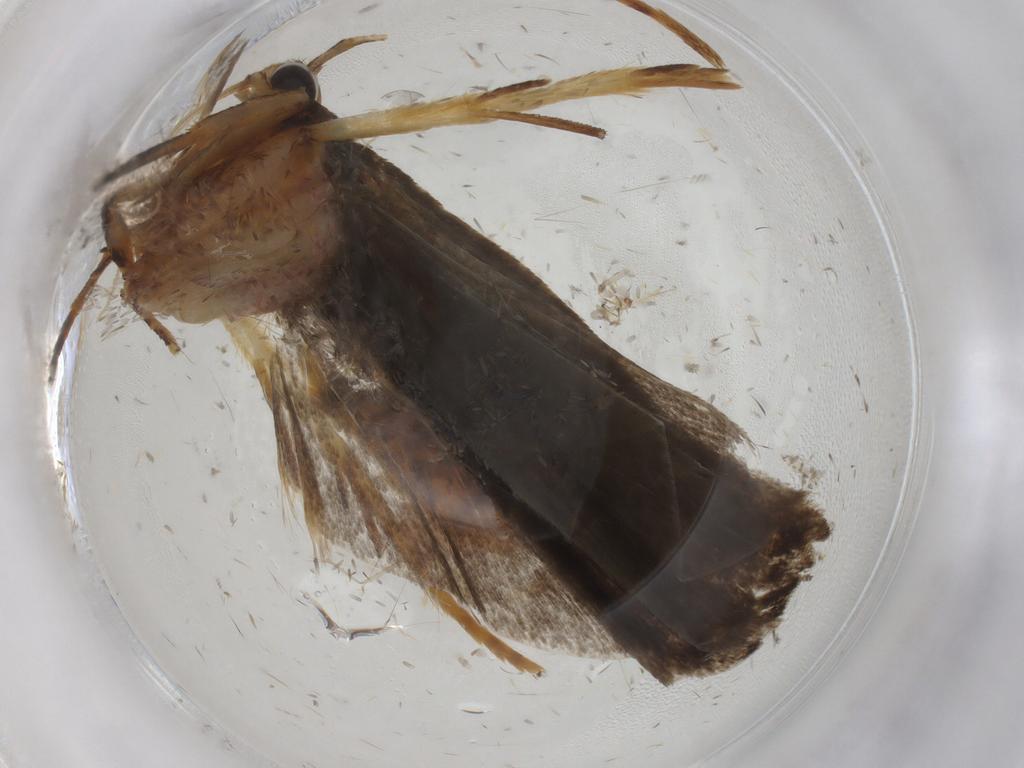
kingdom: Animalia
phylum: Arthropoda
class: Insecta
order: Lepidoptera
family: Autostichidae
